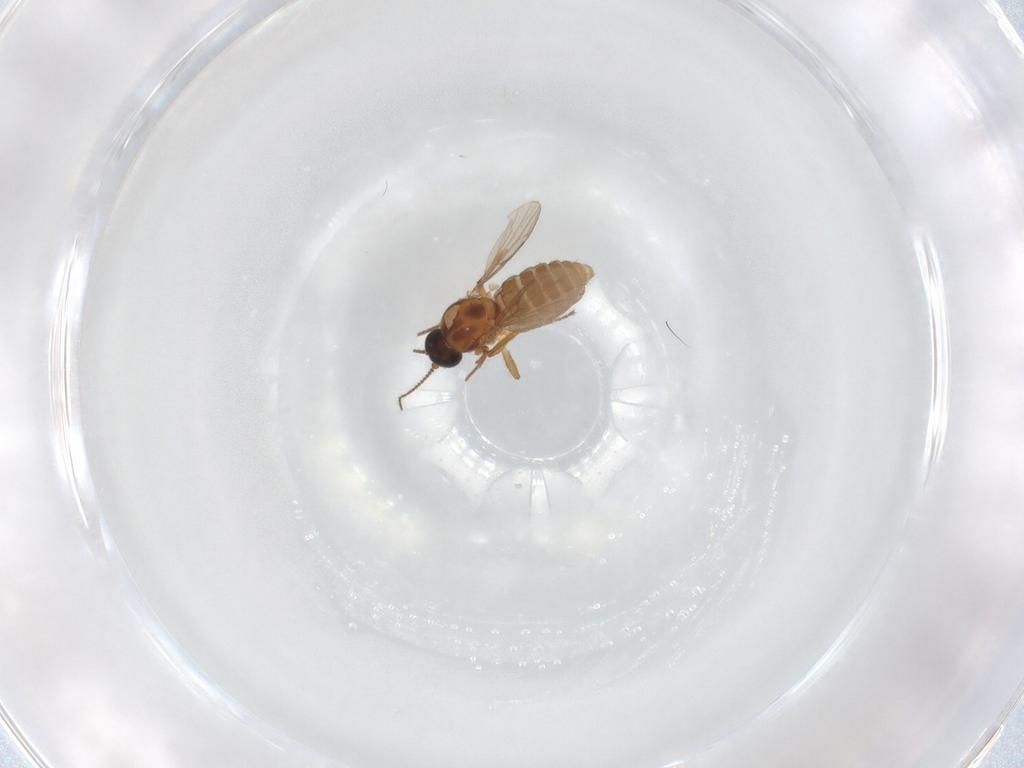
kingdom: Animalia
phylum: Arthropoda
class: Insecta
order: Diptera
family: Ceratopogonidae
